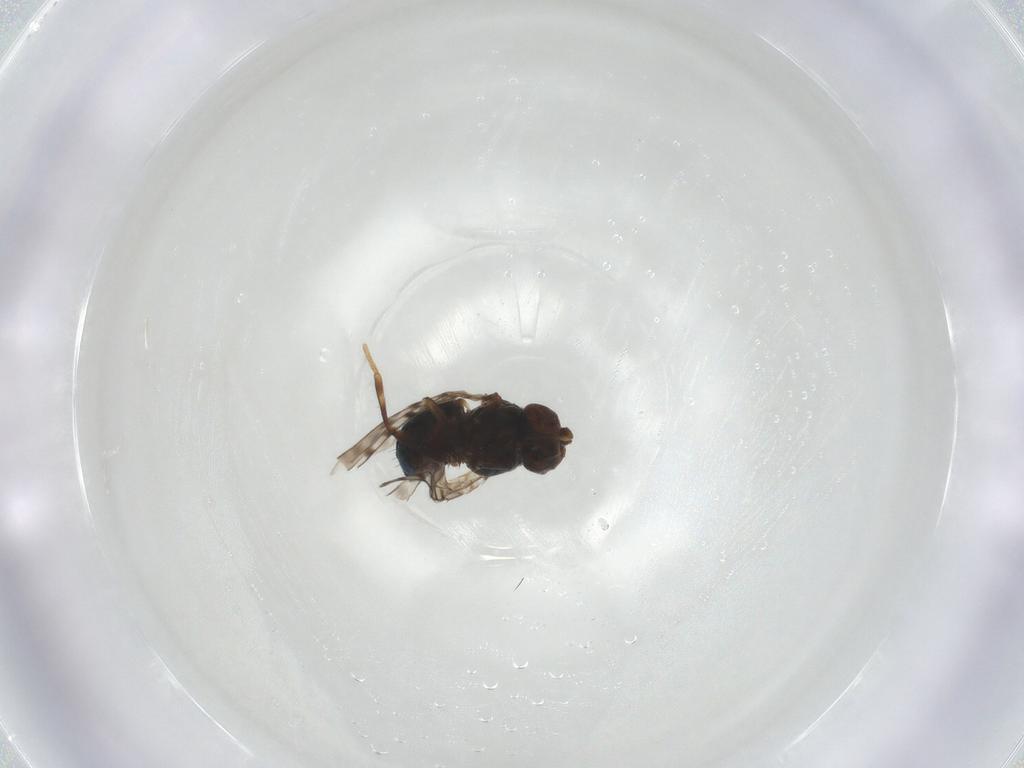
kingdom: Animalia
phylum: Arthropoda
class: Insecta
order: Diptera
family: Ephydridae
